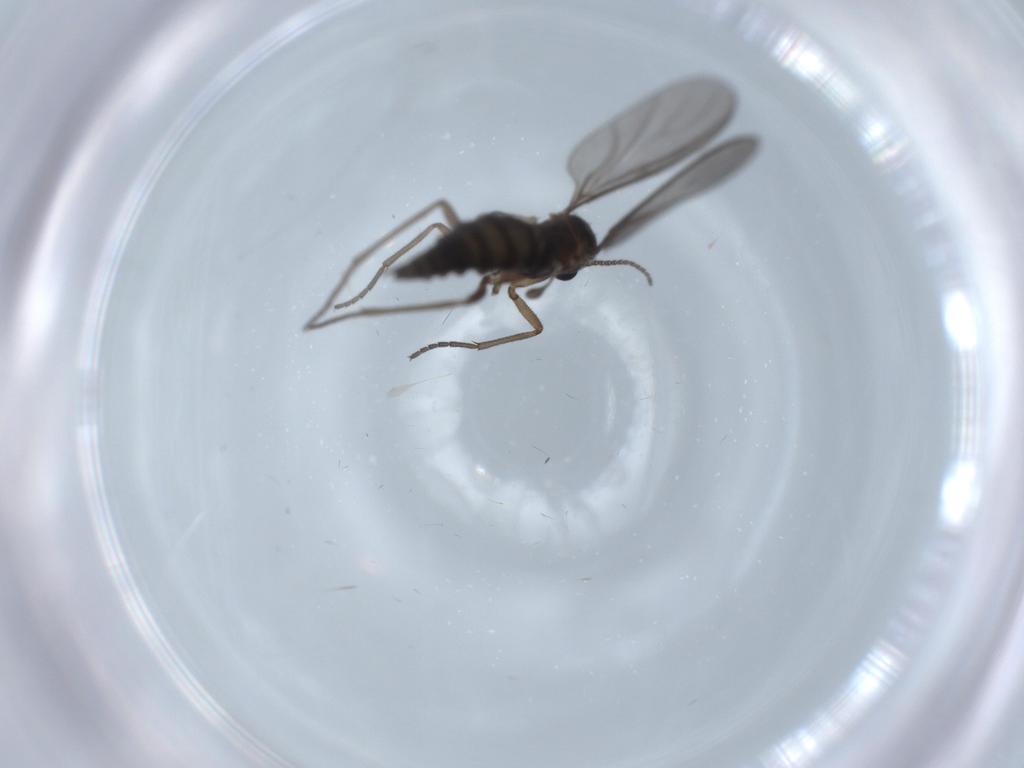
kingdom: Animalia
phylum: Arthropoda
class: Insecta
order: Diptera
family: Sciaridae
